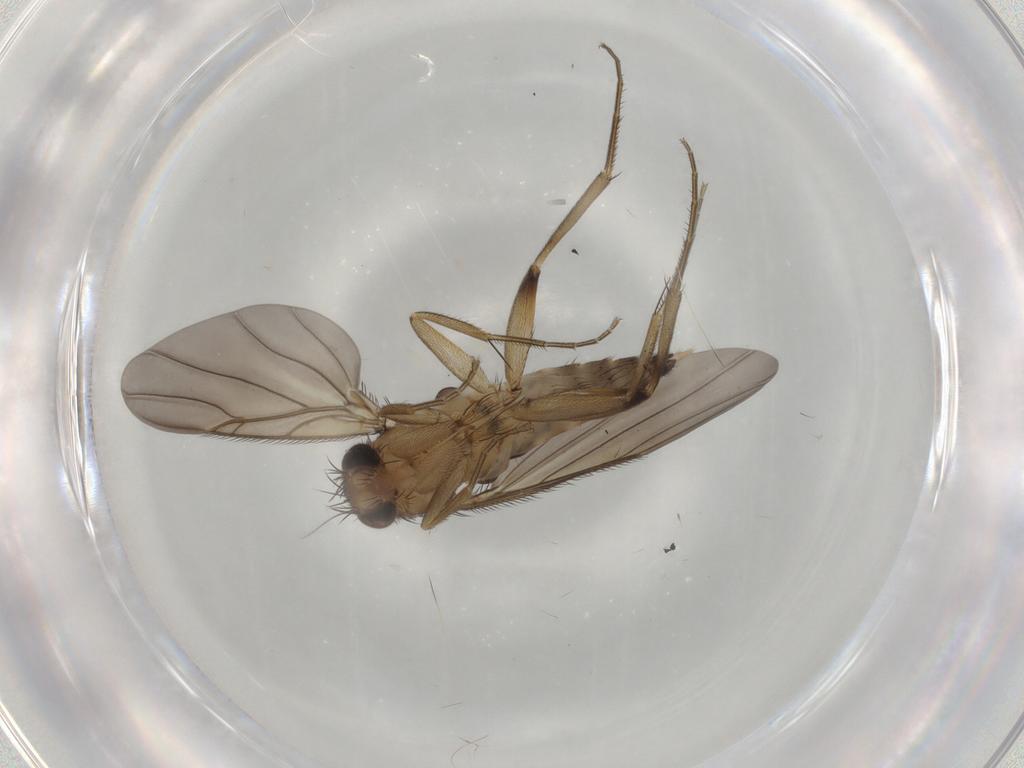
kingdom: Animalia
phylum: Arthropoda
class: Insecta
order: Diptera
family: Phoridae
